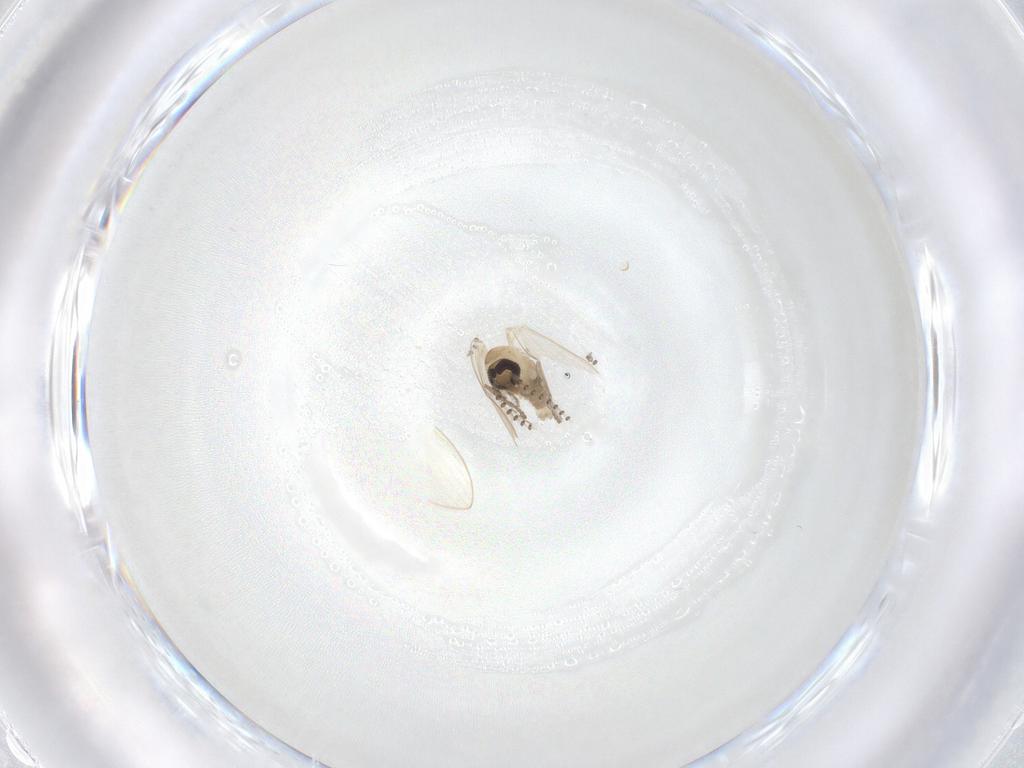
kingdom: Animalia
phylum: Arthropoda
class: Insecta
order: Diptera
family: Psychodidae
